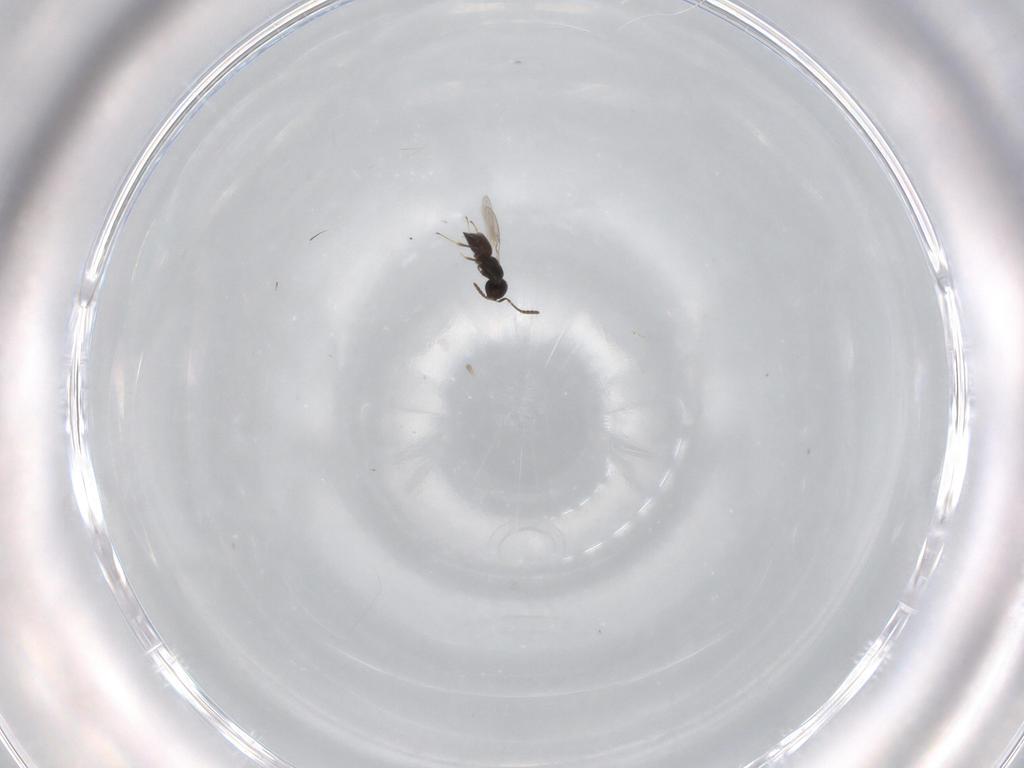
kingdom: Animalia
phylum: Arthropoda
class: Insecta
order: Hymenoptera
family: Scelionidae
